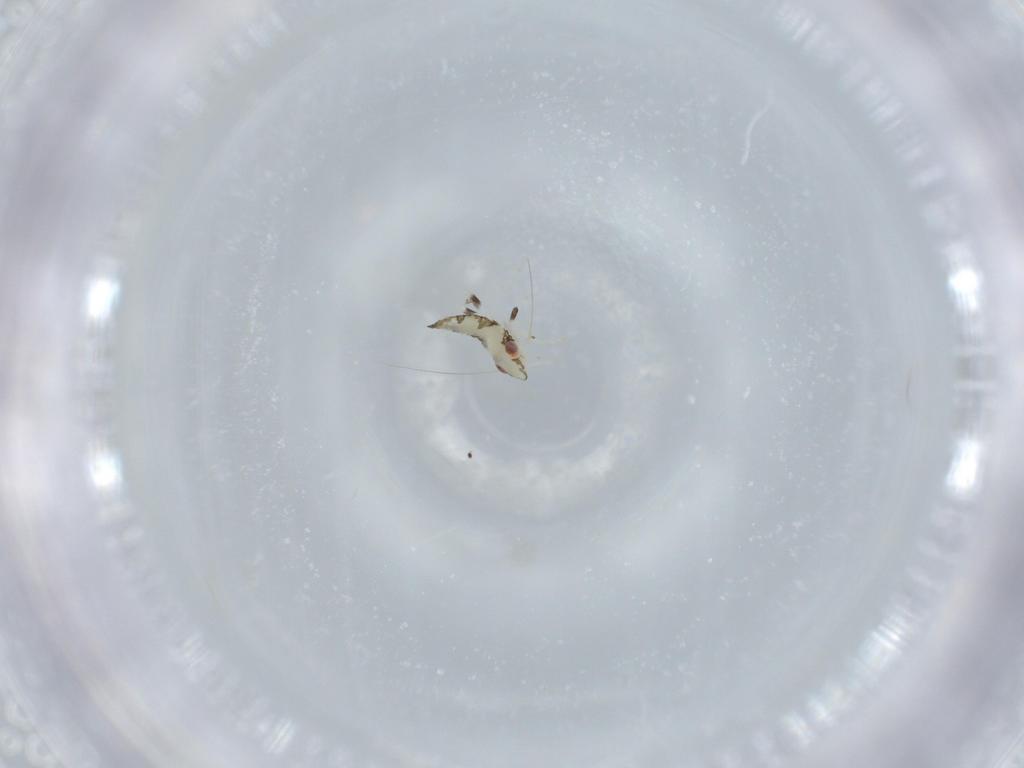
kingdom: Animalia
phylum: Arthropoda
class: Insecta
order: Hemiptera
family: Cicadellidae
